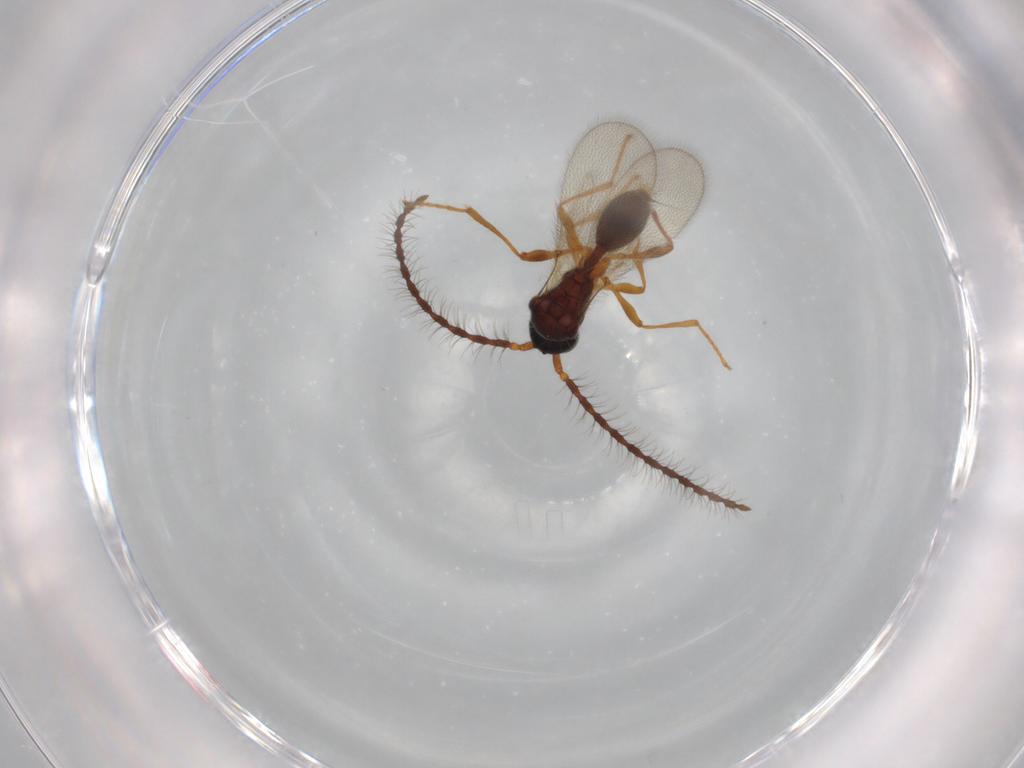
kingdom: Animalia
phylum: Arthropoda
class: Insecta
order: Hymenoptera
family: Diapriidae
